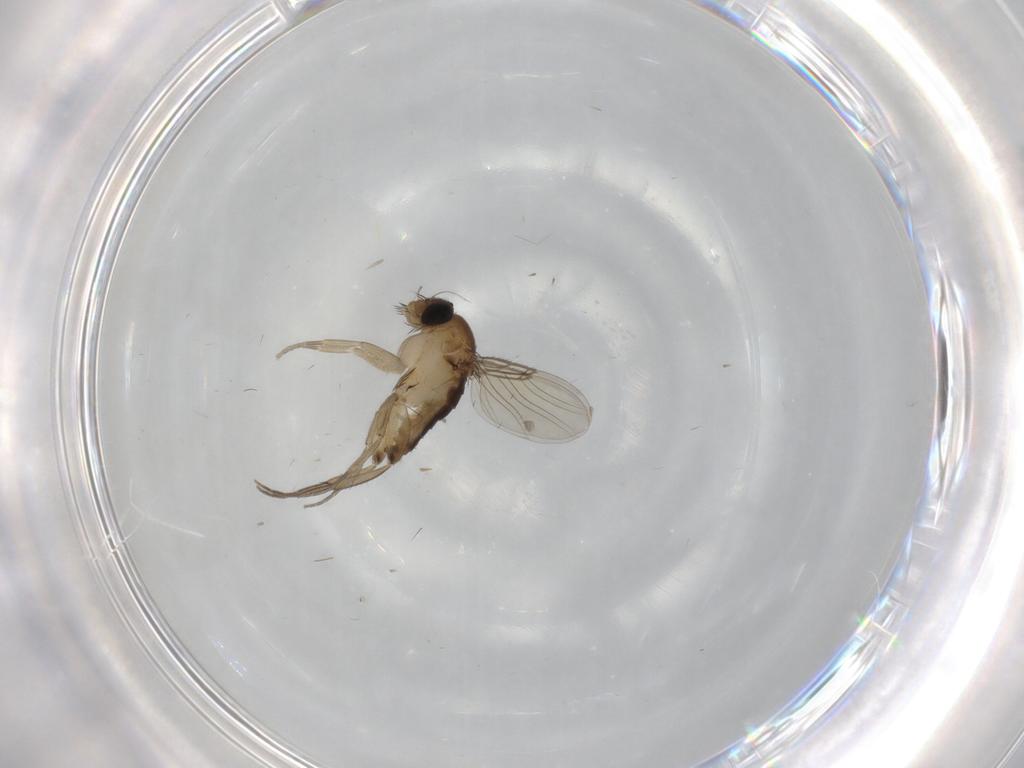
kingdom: Animalia
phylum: Arthropoda
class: Insecta
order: Diptera
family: Phoridae
